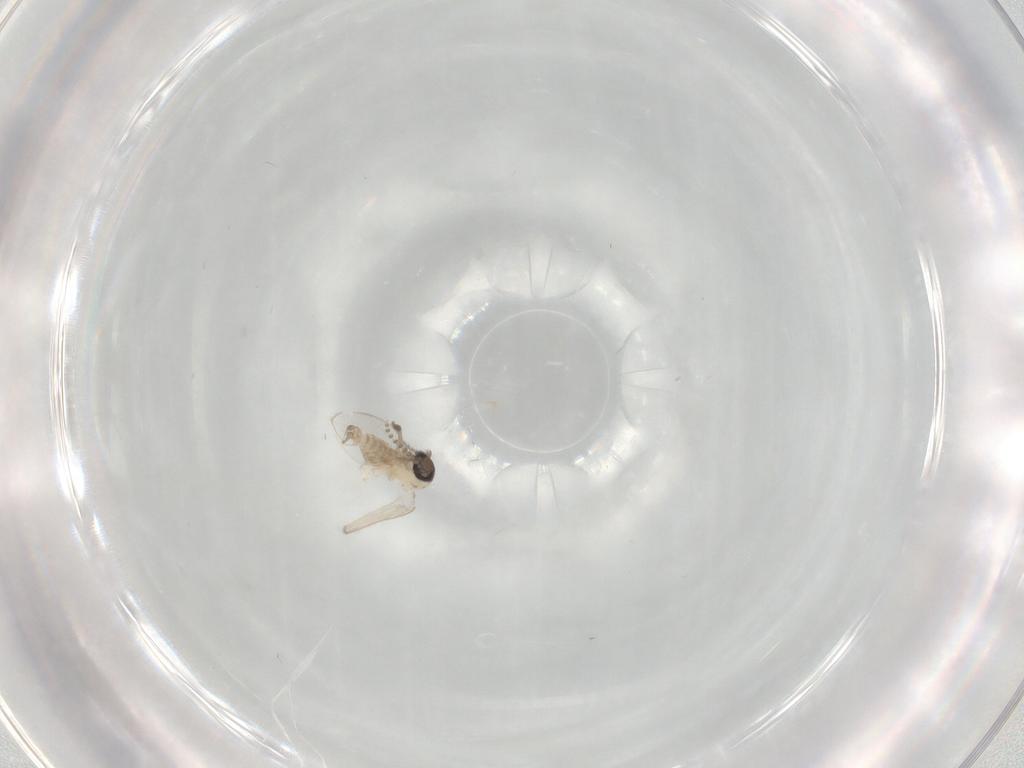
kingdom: Animalia
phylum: Arthropoda
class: Insecta
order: Diptera
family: Psychodidae
